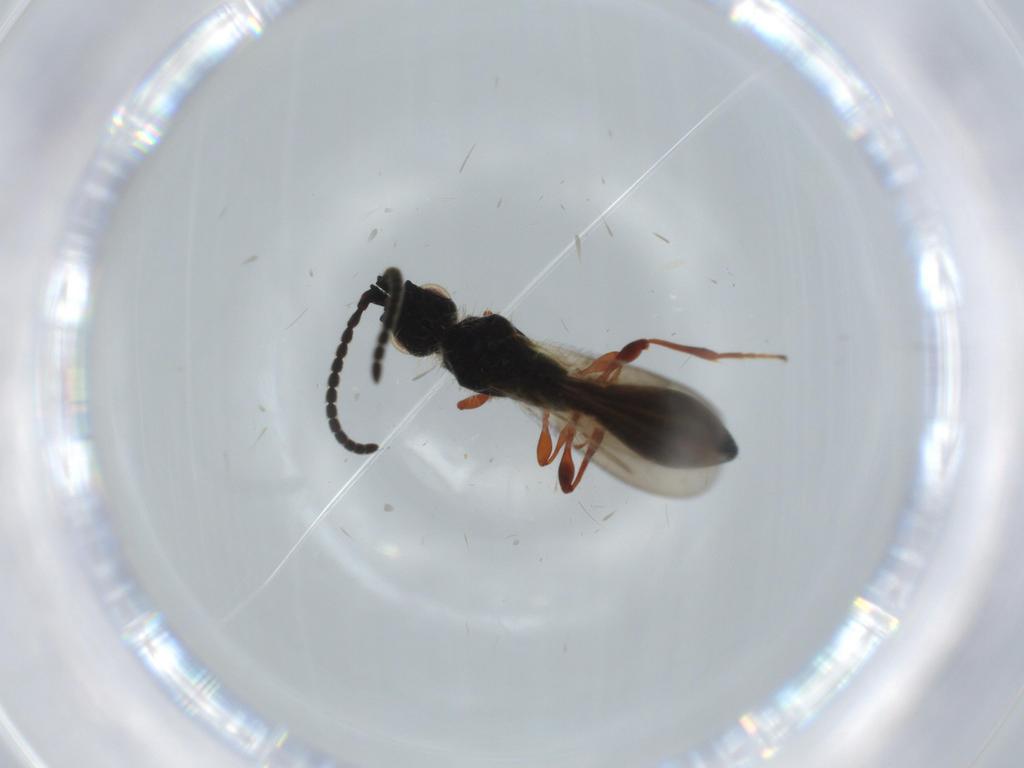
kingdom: Animalia
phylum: Arthropoda
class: Insecta
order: Hymenoptera
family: Diapriidae
